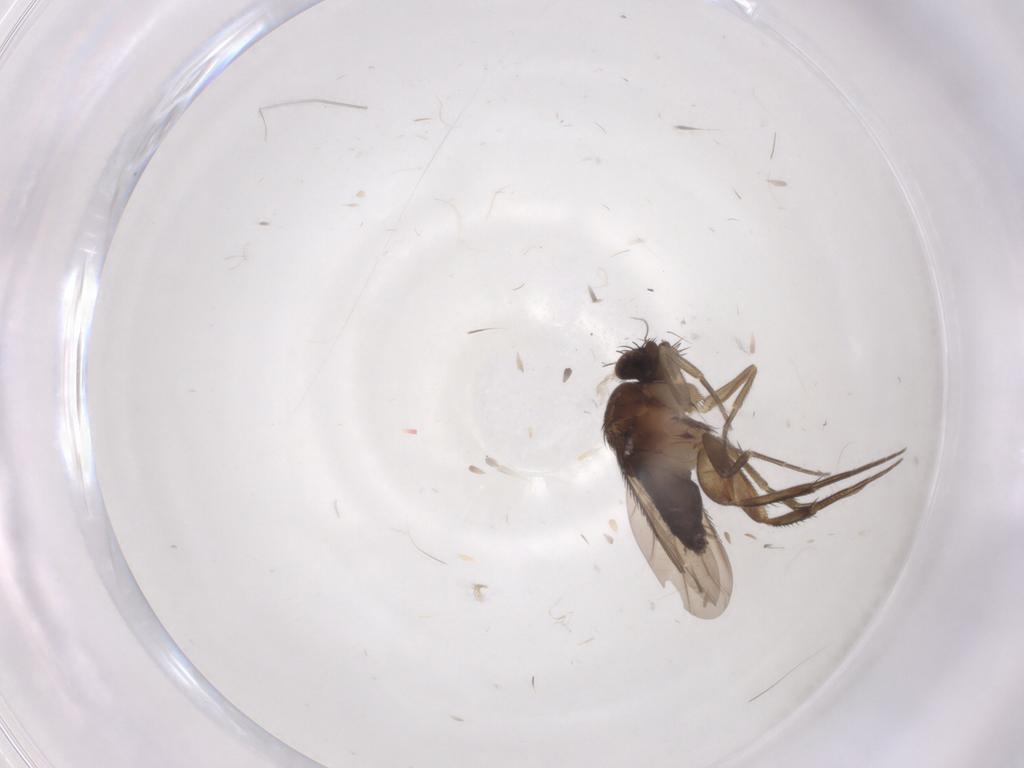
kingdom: Animalia
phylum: Arthropoda
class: Insecta
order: Diptera
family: Phoridae
